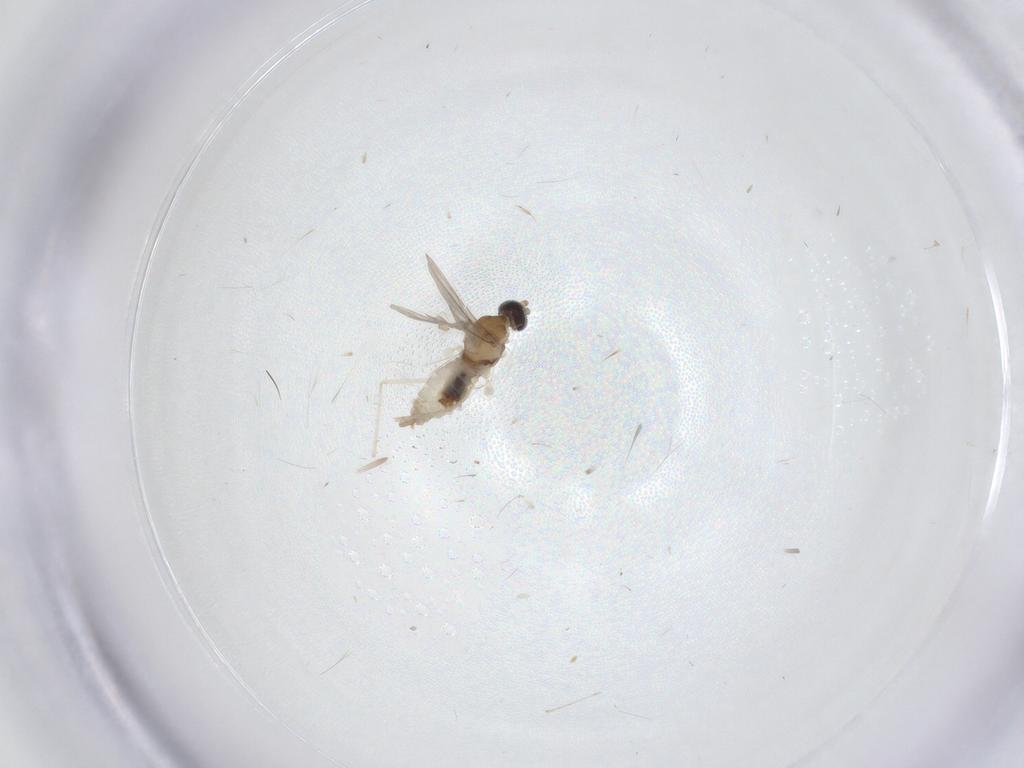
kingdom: Animalia
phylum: Arthropoda
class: Insecta
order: Diptera
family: Cecidomyiidae
